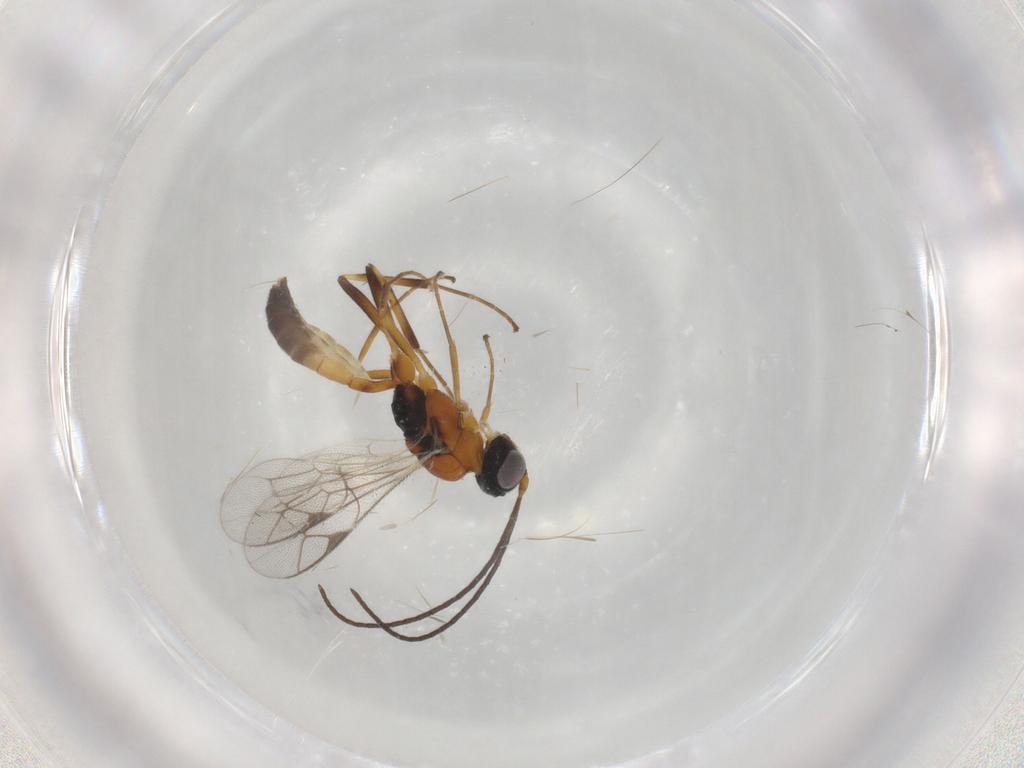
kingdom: Animalia
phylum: Arthropoda
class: Insecta
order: Hymenoptera
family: Ichneumonidae
